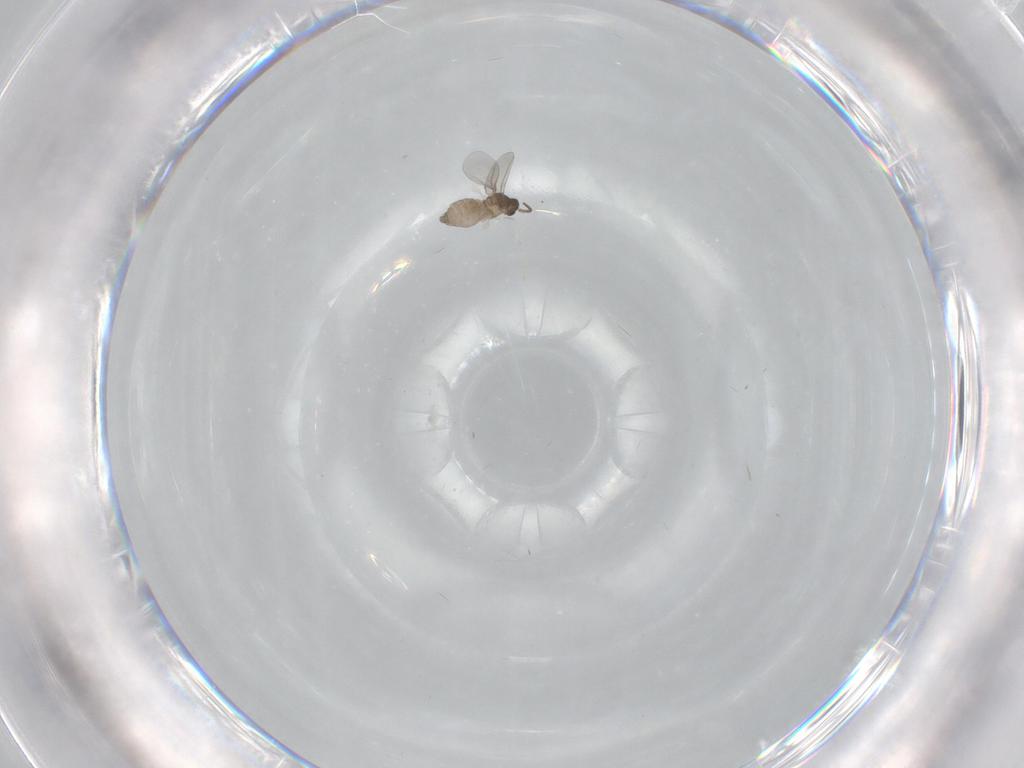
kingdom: Animalia
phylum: Arthropoda
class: Insecta
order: Diptera
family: Cecidomyiidae
